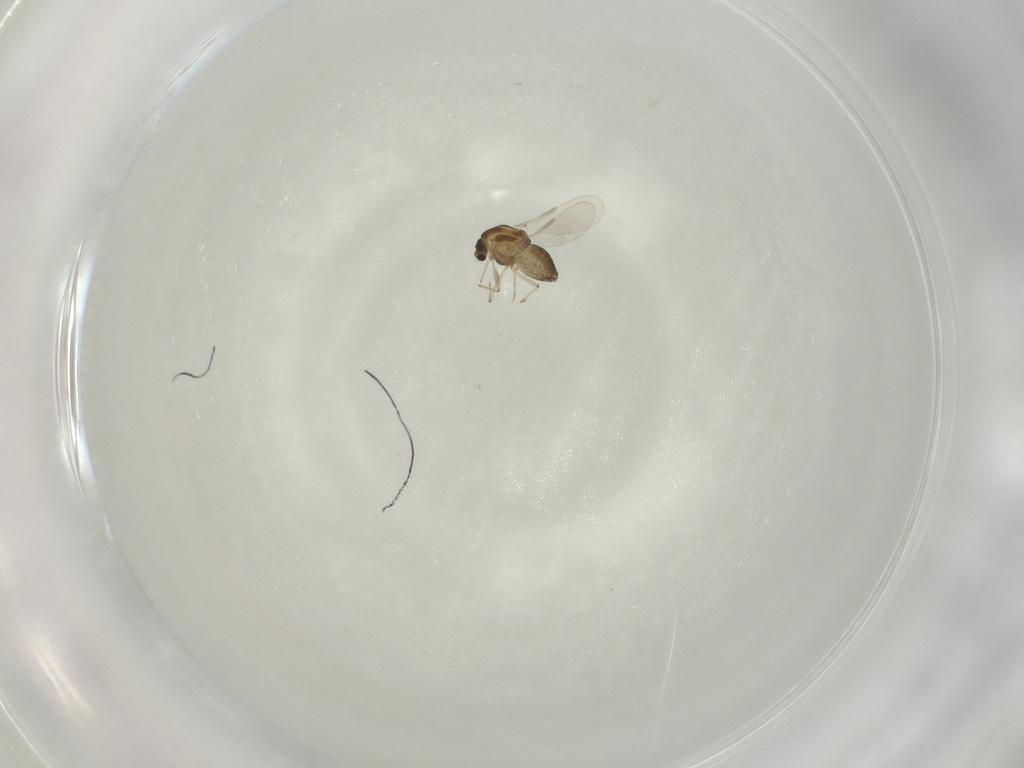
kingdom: Animalia
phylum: Arthropoda
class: Insecta
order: Diptera
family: Chironomidae
